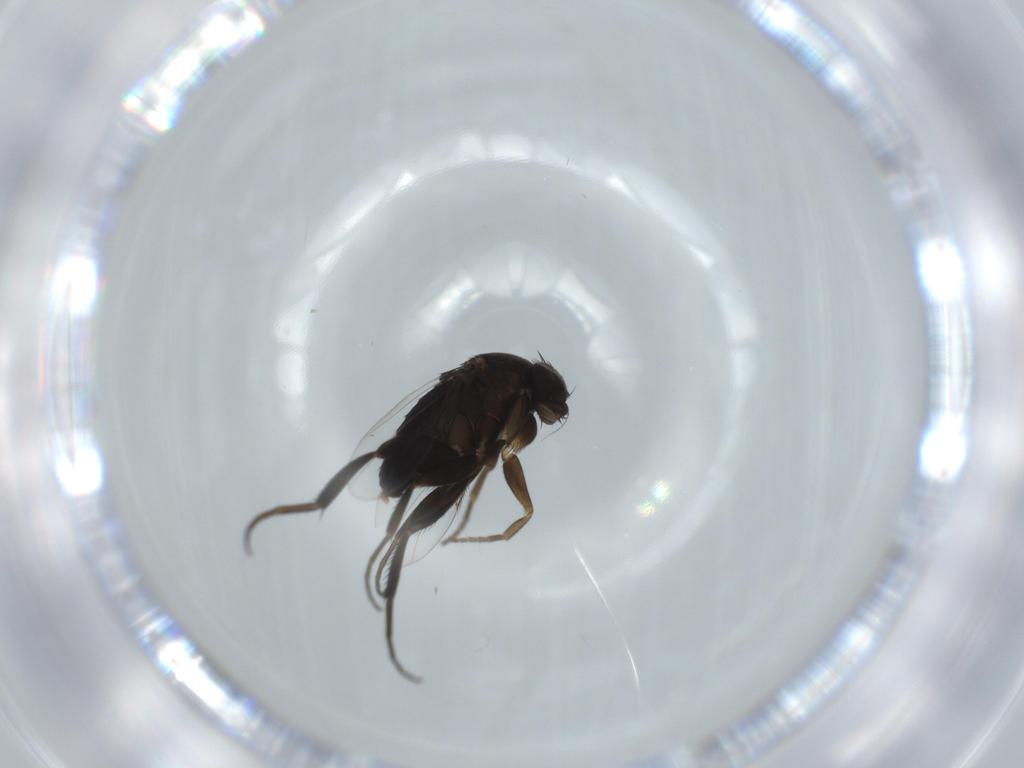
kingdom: Animalia
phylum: Arthropoda
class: Insecta
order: Diptera
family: Phoridae
